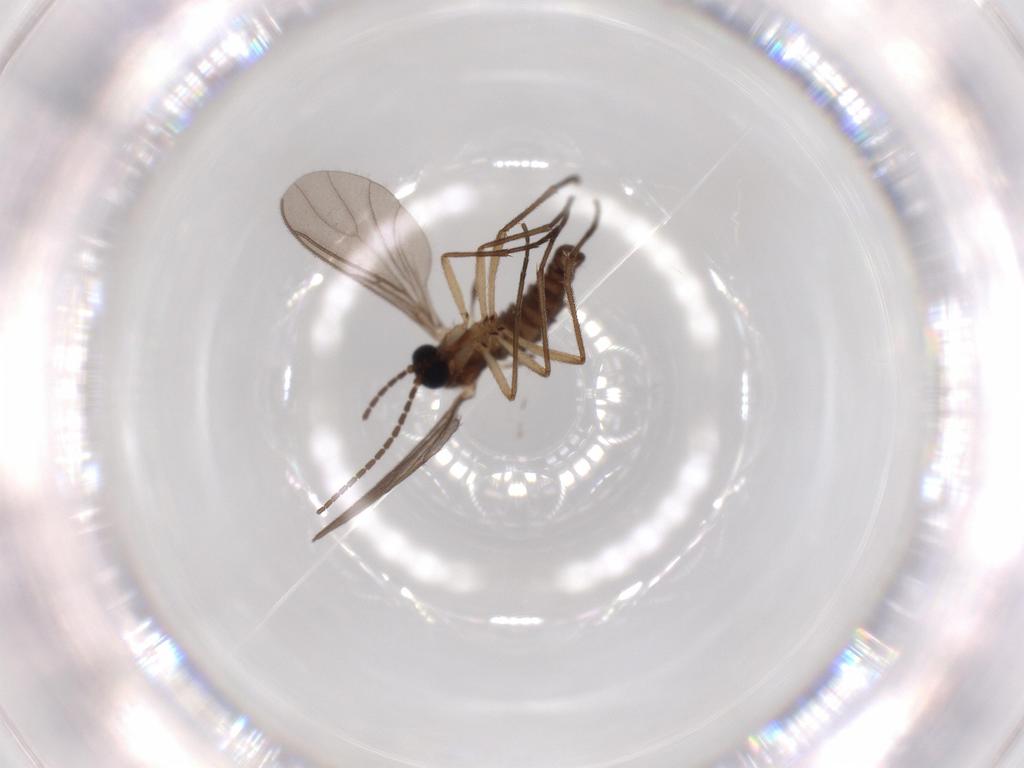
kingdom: Animalia
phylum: Arthropoda
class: Insecta
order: Diptera
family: Sciaridae
